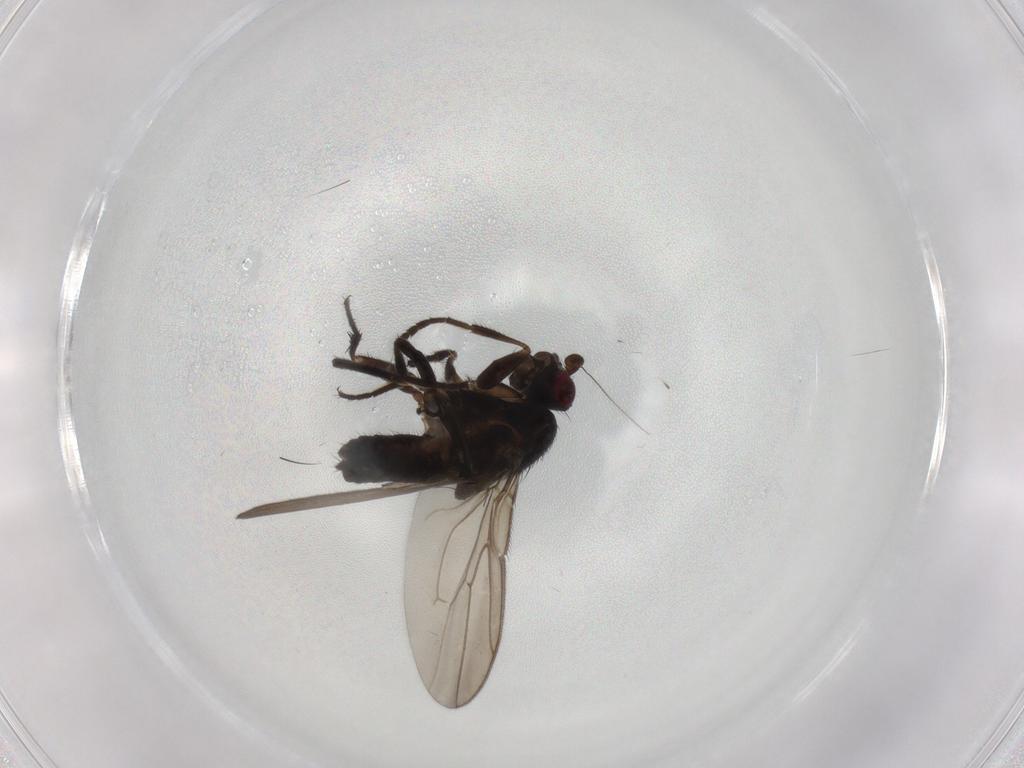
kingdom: Animalia
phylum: Arthropoda
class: Insecta
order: Diptera
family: Sphaeroceridae
